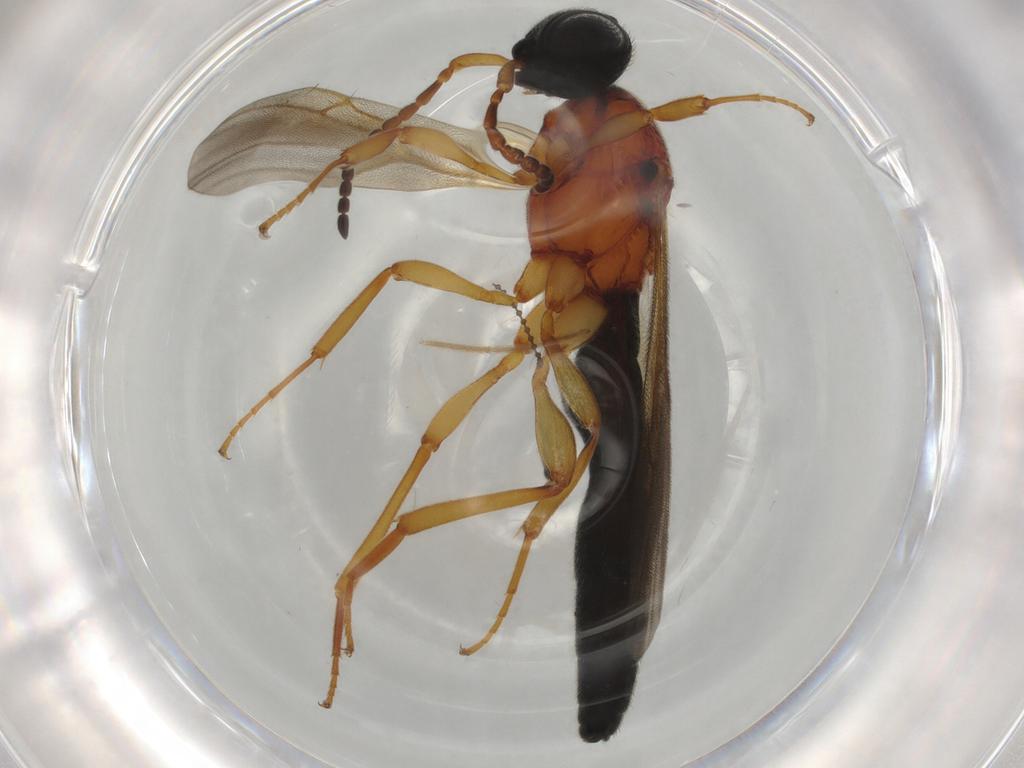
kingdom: Animalia
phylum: Arthropoda
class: Insecta
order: Hymenoptera
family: Scelionidae
